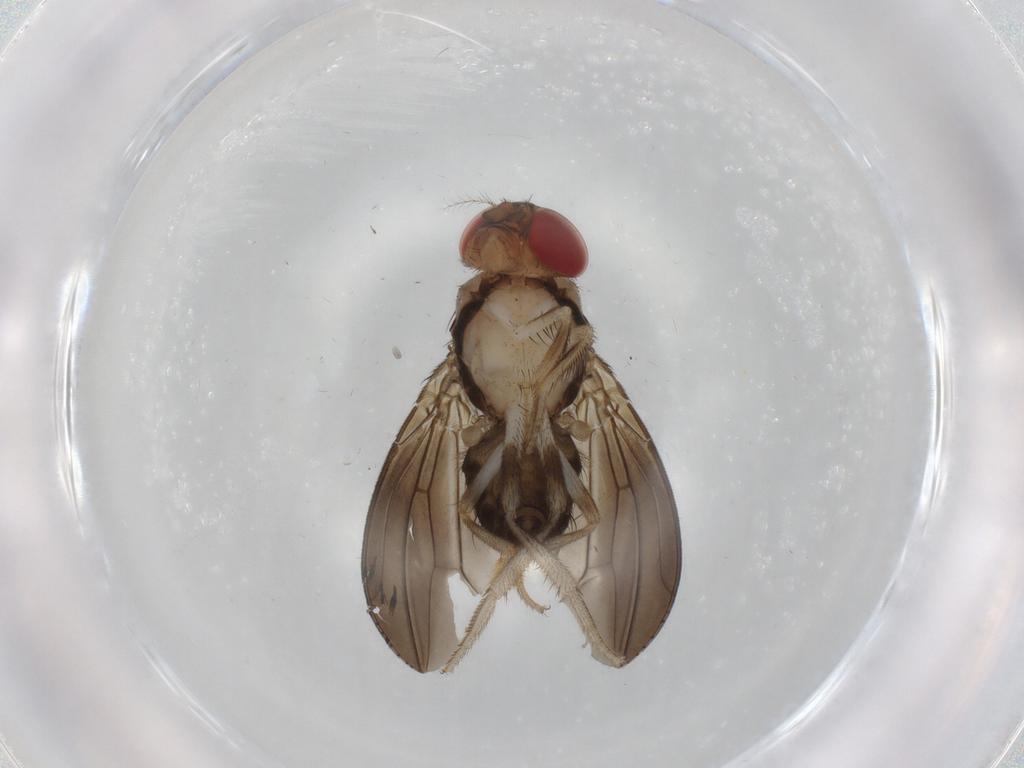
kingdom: Animalia
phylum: Arthropoda
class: Insecta
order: Diptera
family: Drosophilidae
